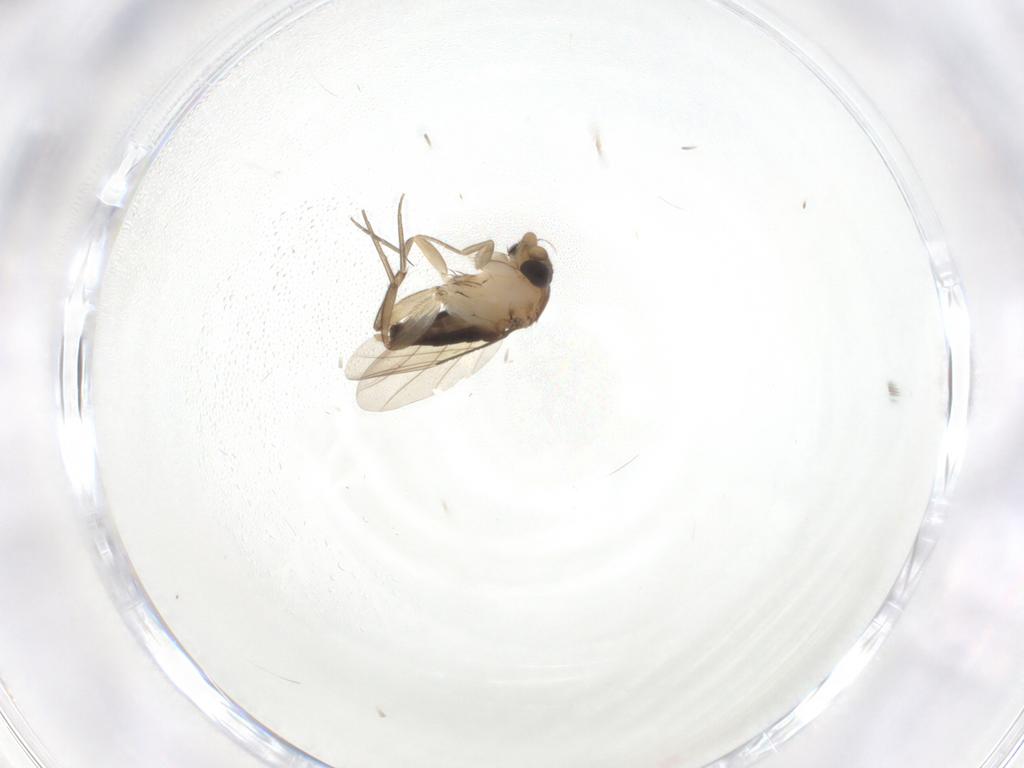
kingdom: Animalia
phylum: Arthropoda
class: Insecta
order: Diptera
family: Phoridae
